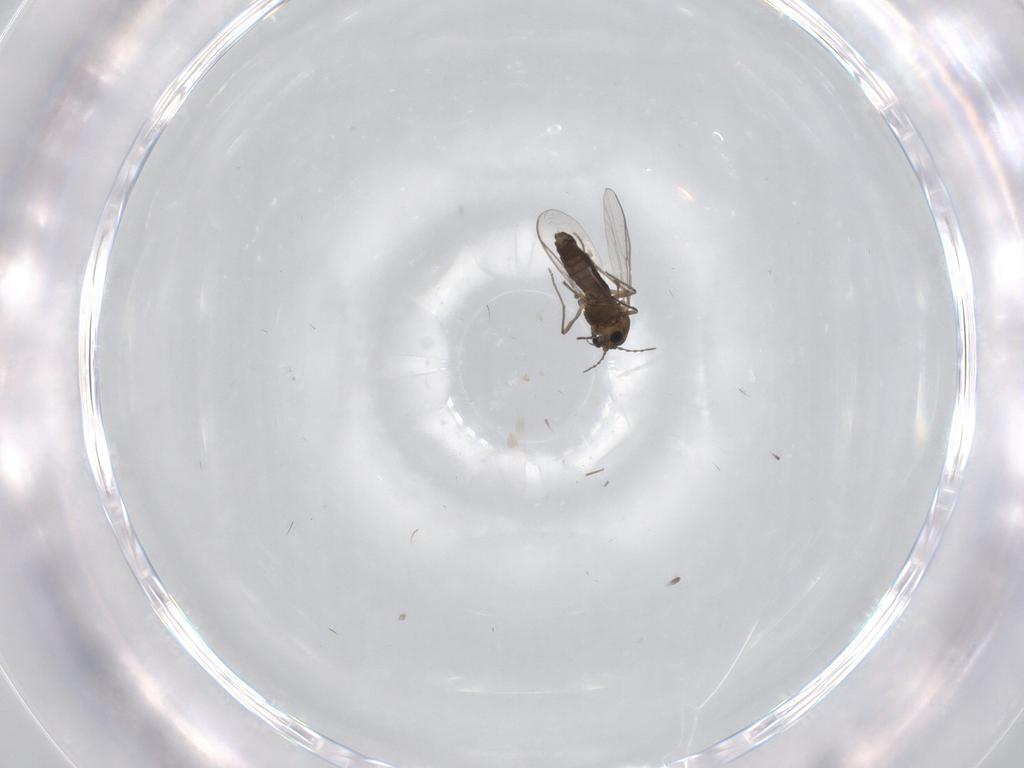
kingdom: Animalia
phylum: Arthropoda
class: Insecta
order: Diptera
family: Chironomidae
